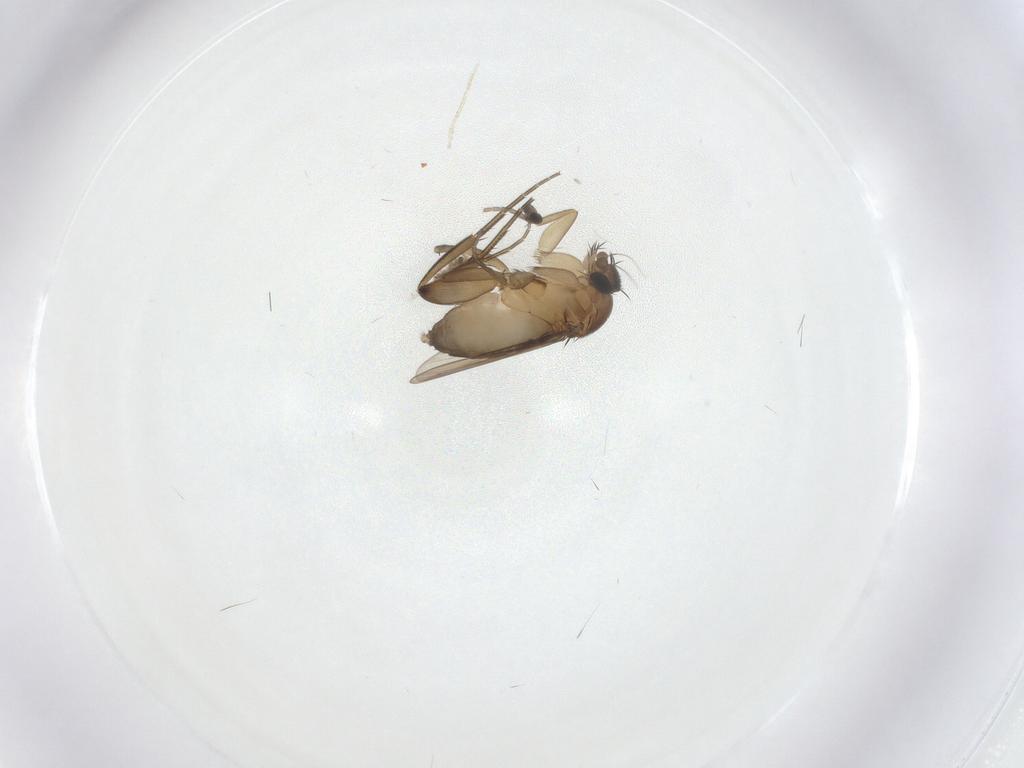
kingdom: Animalia
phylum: Arthropoda
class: Insecta
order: Diptera
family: Phoridae
